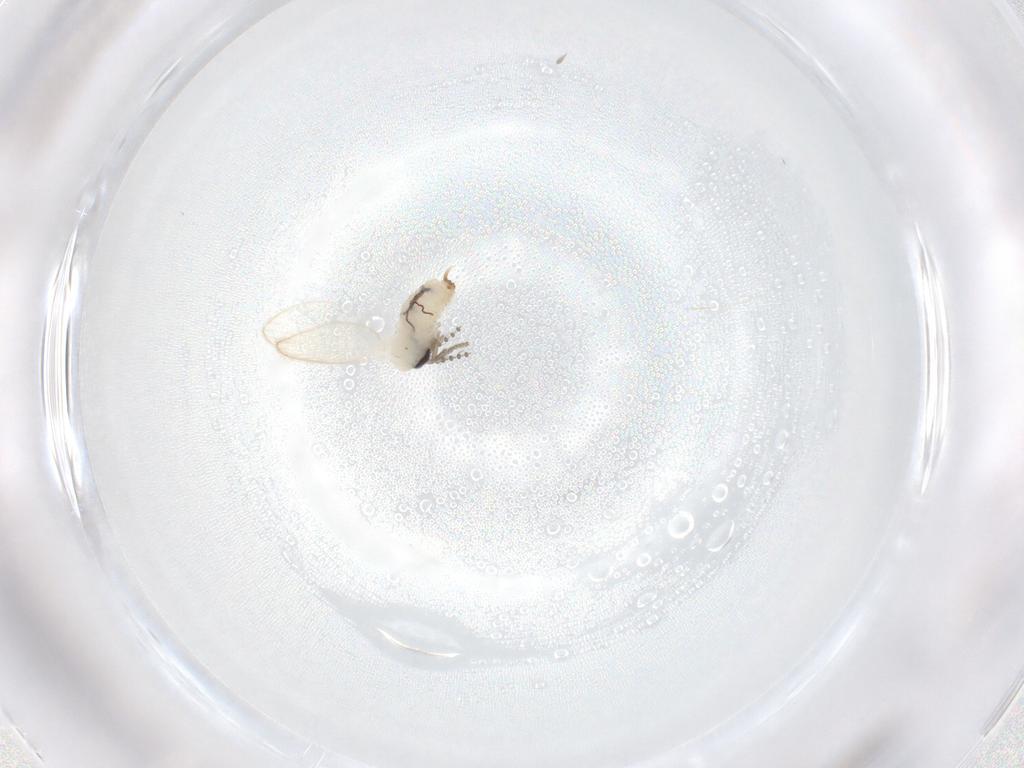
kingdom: Animalia
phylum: Arthropoda
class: Insecta
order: Diptera
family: Psychodidae
